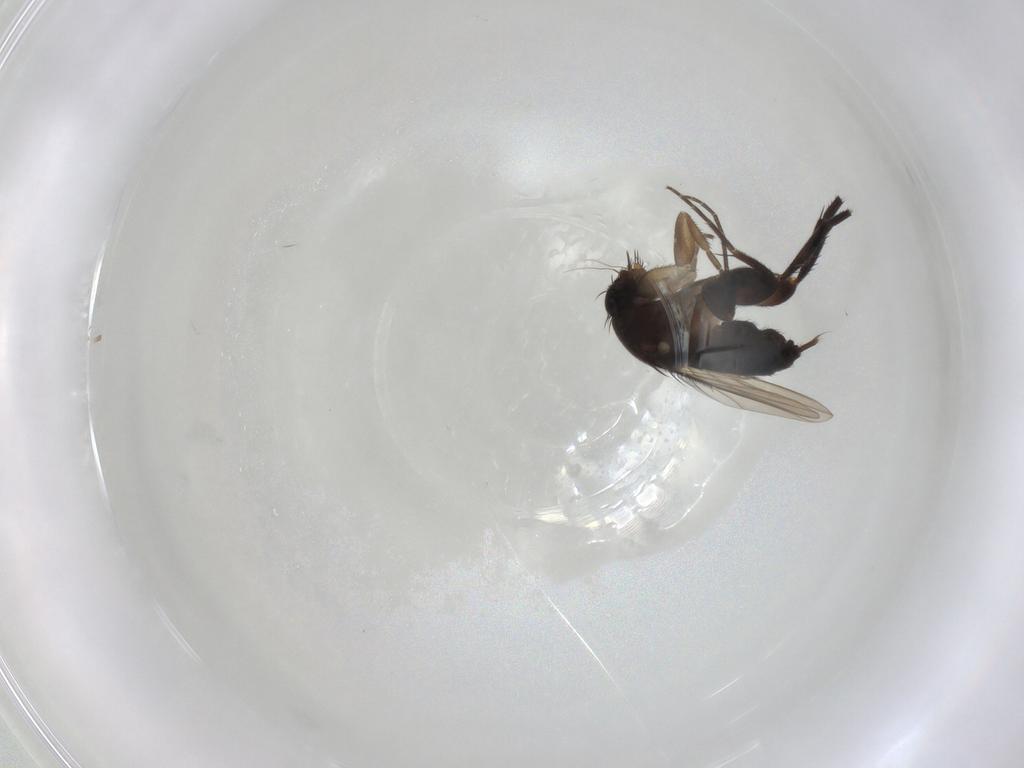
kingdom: Animalia
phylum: Arthropoda
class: Insecta
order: Diptera
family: Phoridae
